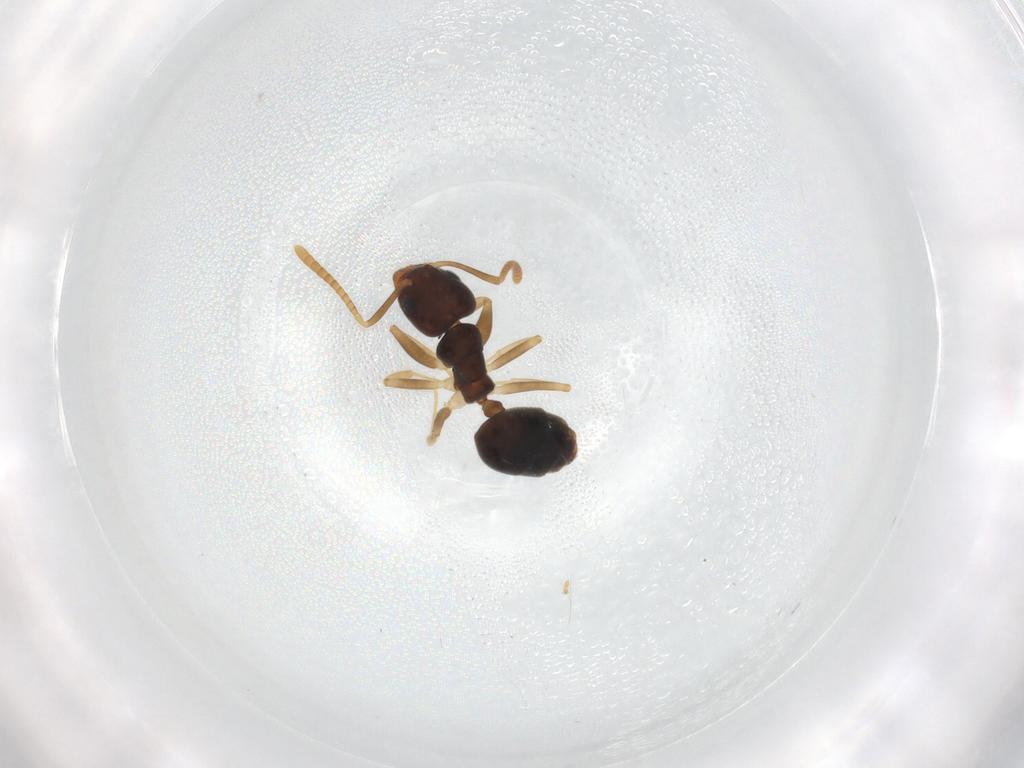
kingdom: Animalia
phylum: Arthropoda
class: Insecta
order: Hymenoptera
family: Formicidae
